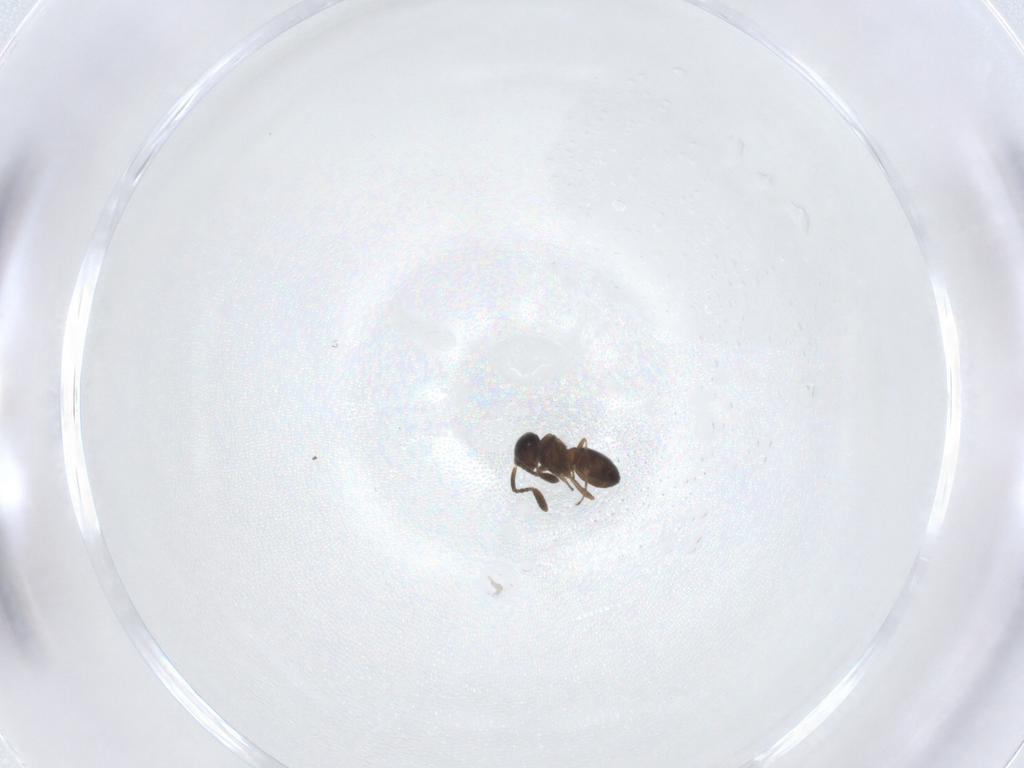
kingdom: Animalia
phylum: Arthropoda
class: Insecta
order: Hymenoptera
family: Scelionidae
